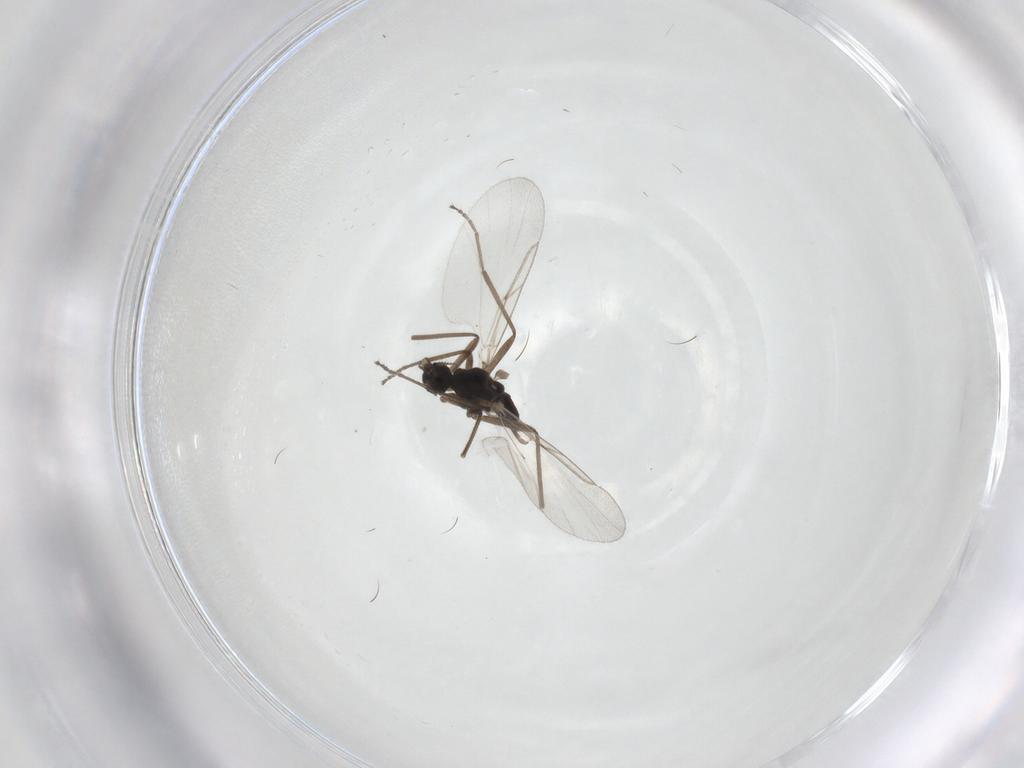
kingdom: Animalia
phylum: Arthropoda
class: Insecta
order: Diptera
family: Cecidomyiidae
